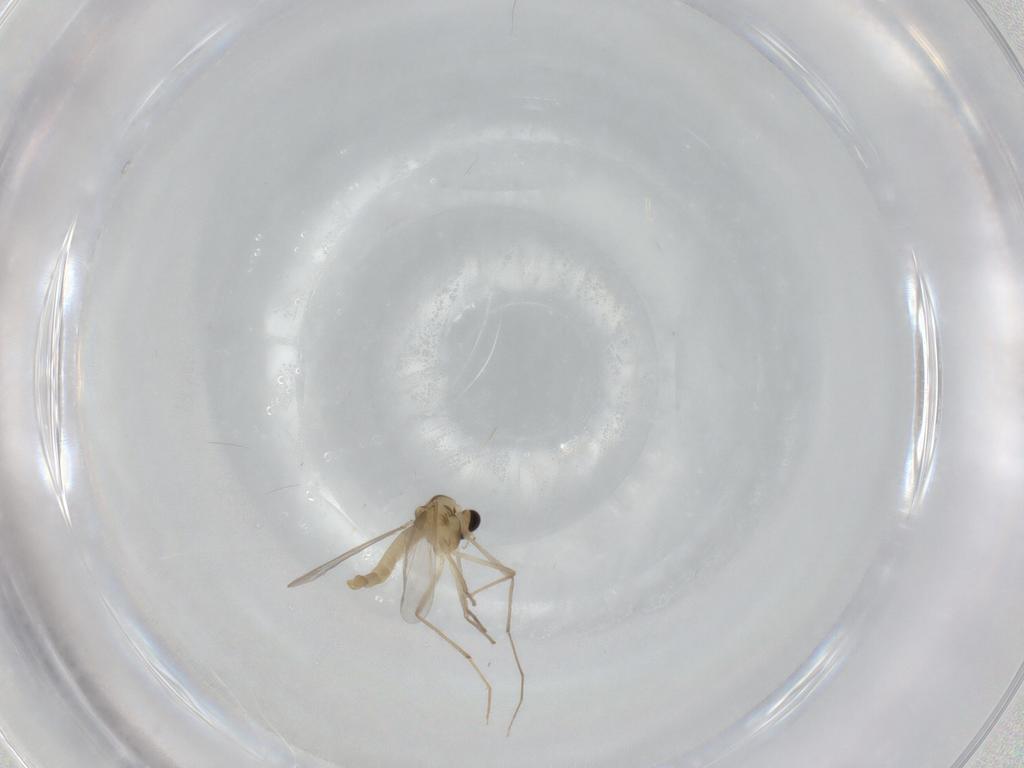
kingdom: Animalia
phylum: Arthropoda
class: Insecta
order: Diptera
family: Chironomidae
